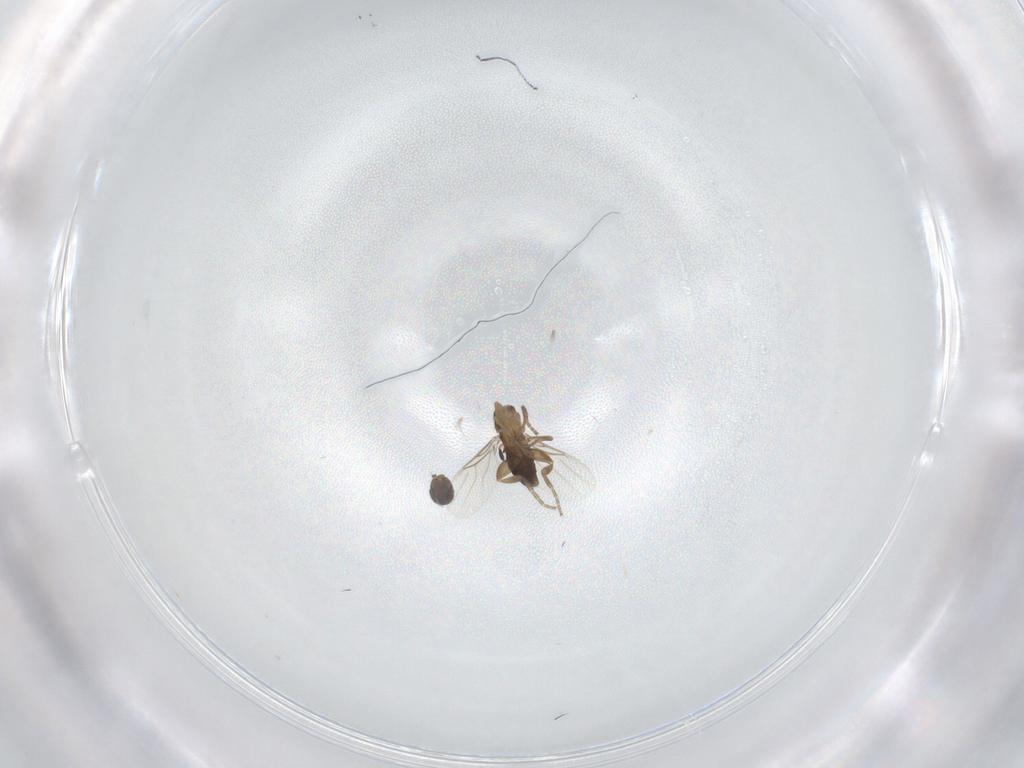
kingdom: Animalia
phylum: Arthropoda
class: Insecta
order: Diptera
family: Phoridae
